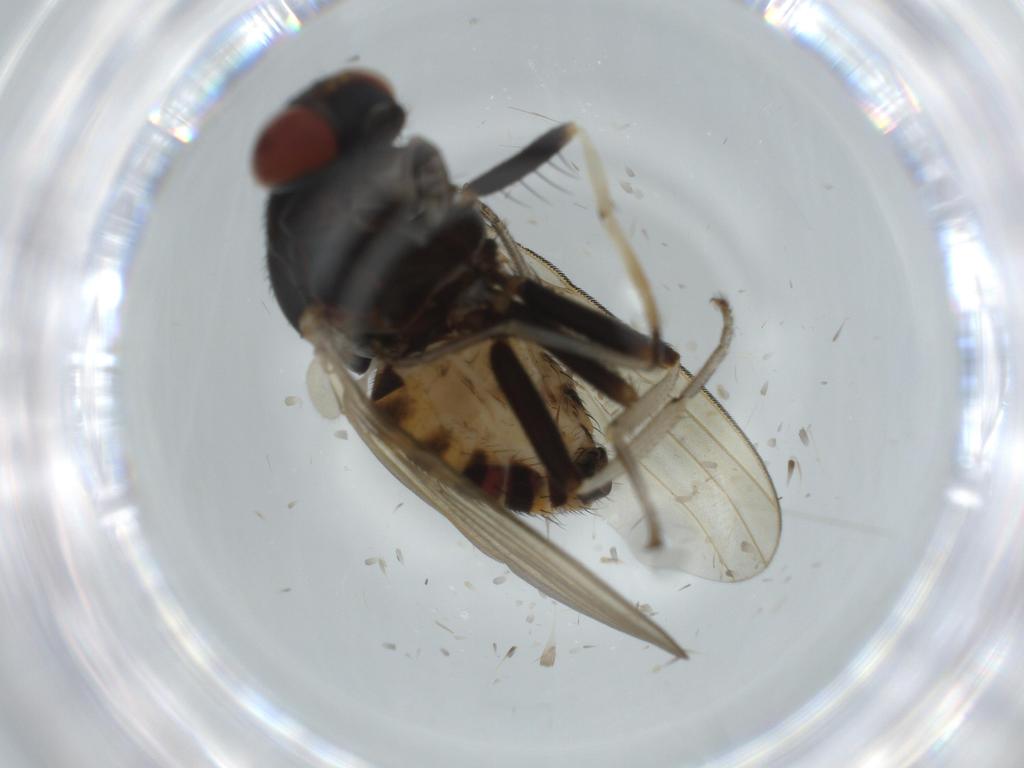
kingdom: Animalia
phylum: Arthropoda
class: Insecta
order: Diptera
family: Lauxaniidae
